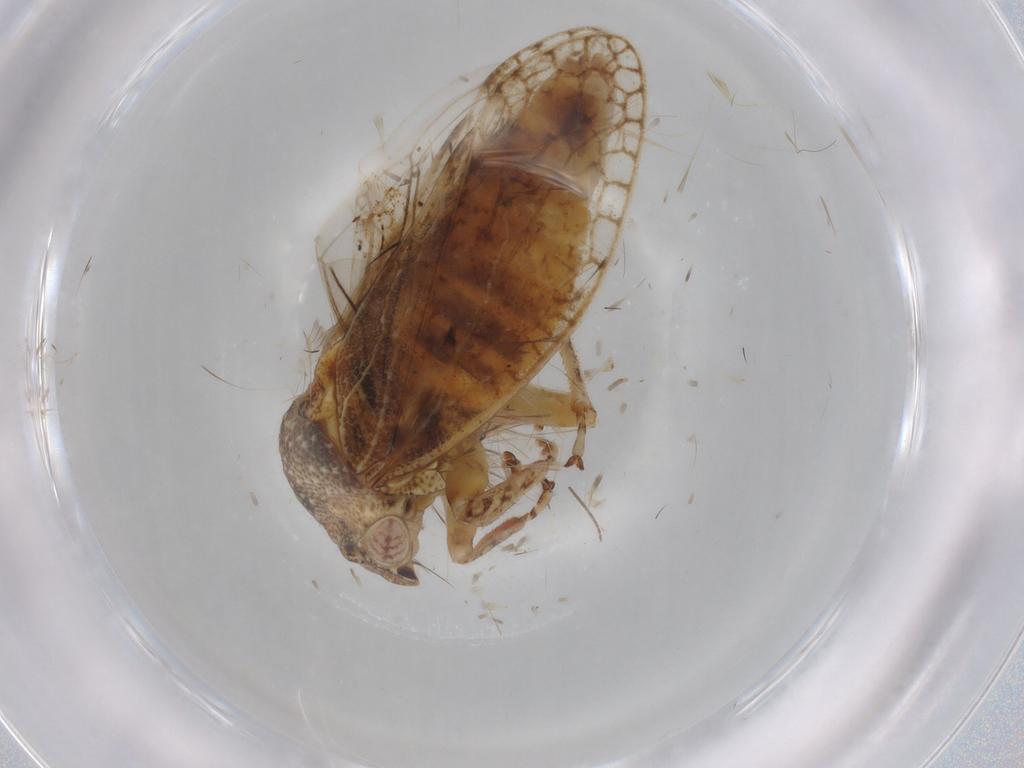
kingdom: Animalia
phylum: Arthropoda
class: Insecta
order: Hemiptera
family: Cicadellidae
